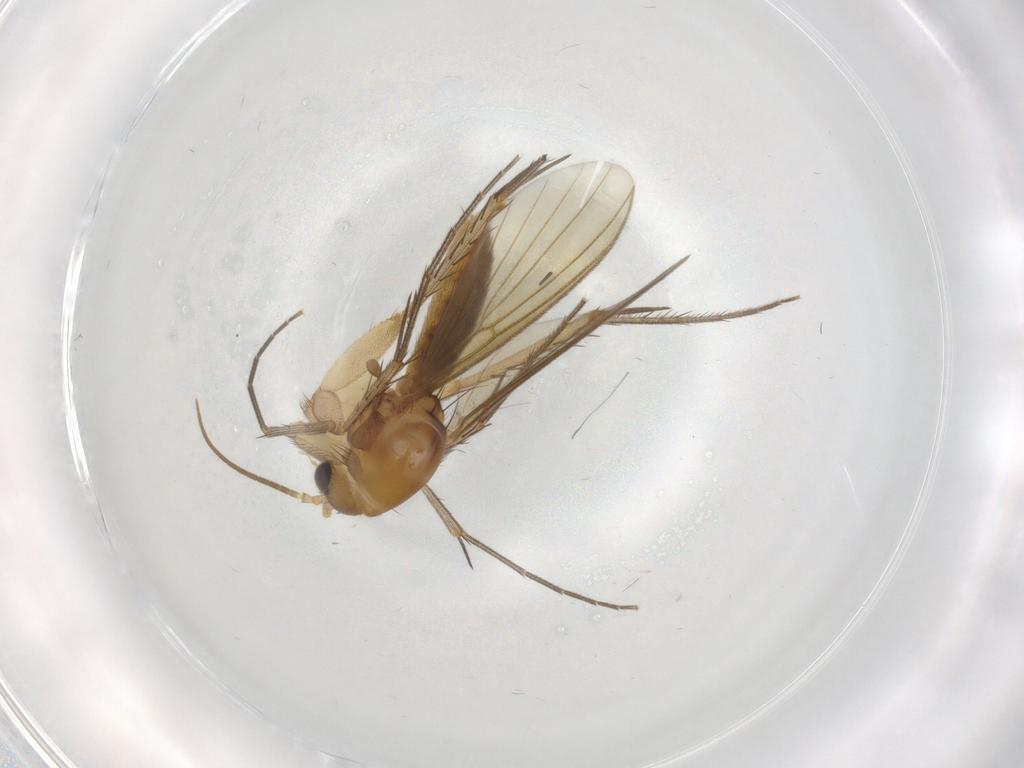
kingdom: Animalia
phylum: Arthropoda
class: Insecta
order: Diptera
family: Mycetophilidae
